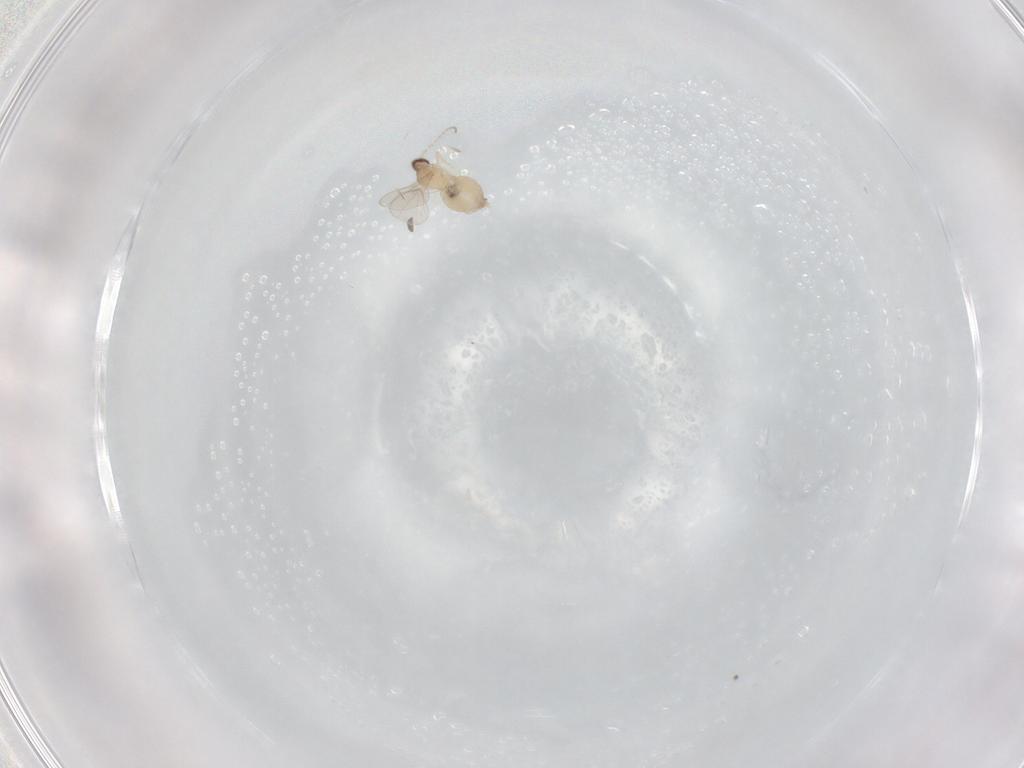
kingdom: Animalia
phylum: Arthropoda
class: Insecta
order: Diptera
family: Cecidomyiidae
